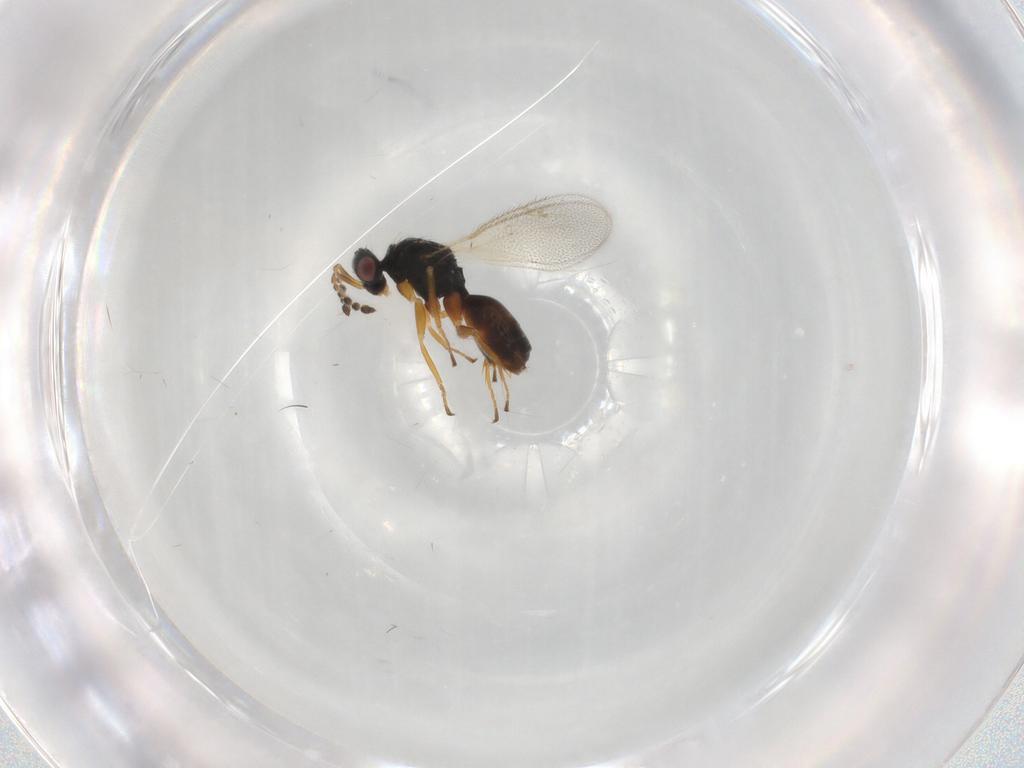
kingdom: Animalia
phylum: Arthropoda
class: Insecta
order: Hymenoptera
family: Eulophidae
